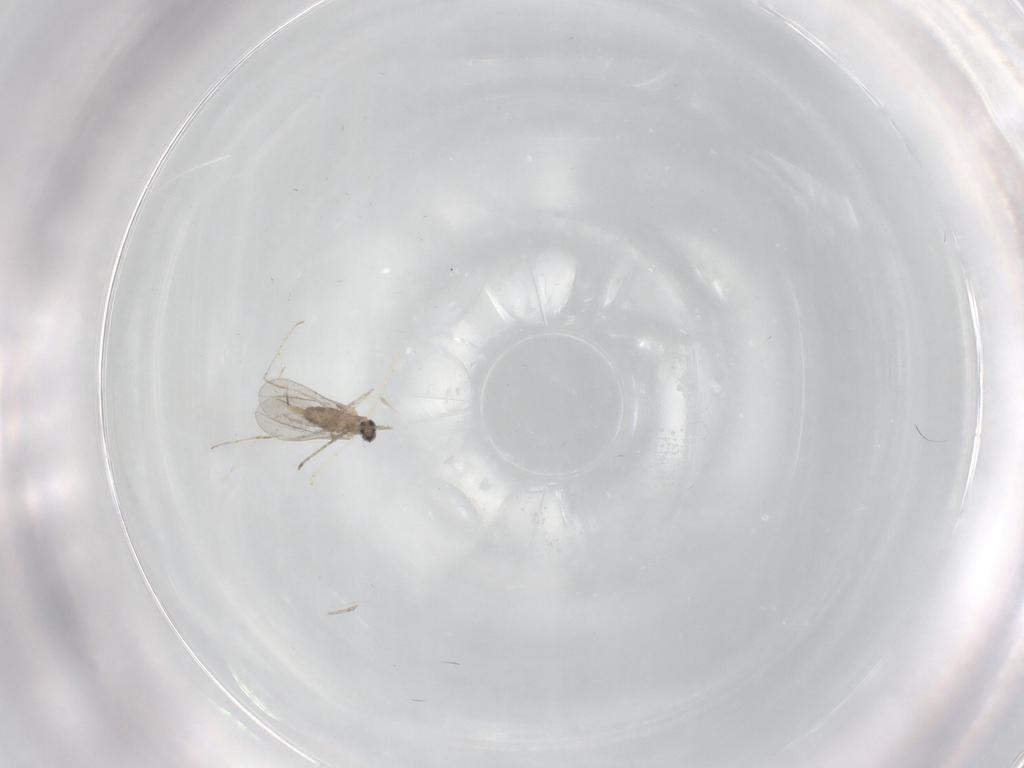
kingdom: Animalia
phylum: Arthropoda
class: Insecta
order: Diptera
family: Cecidomyiidae
